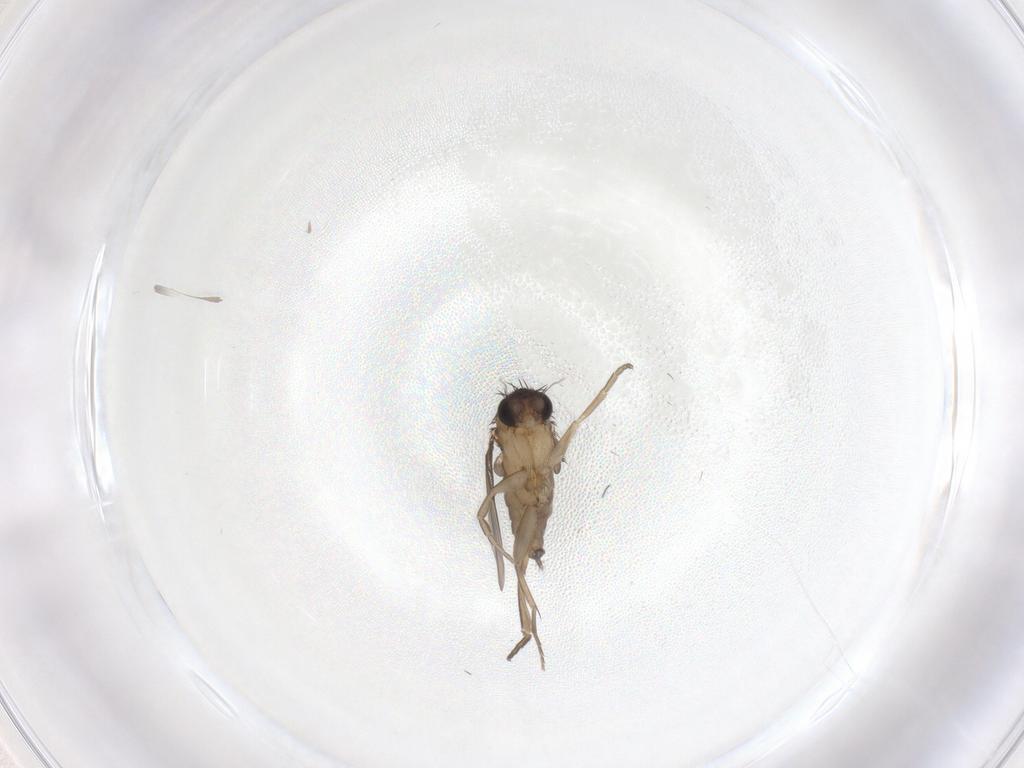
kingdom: Animalia
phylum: Arthropoda
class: Insecta
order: Diptera
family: Phoridae
